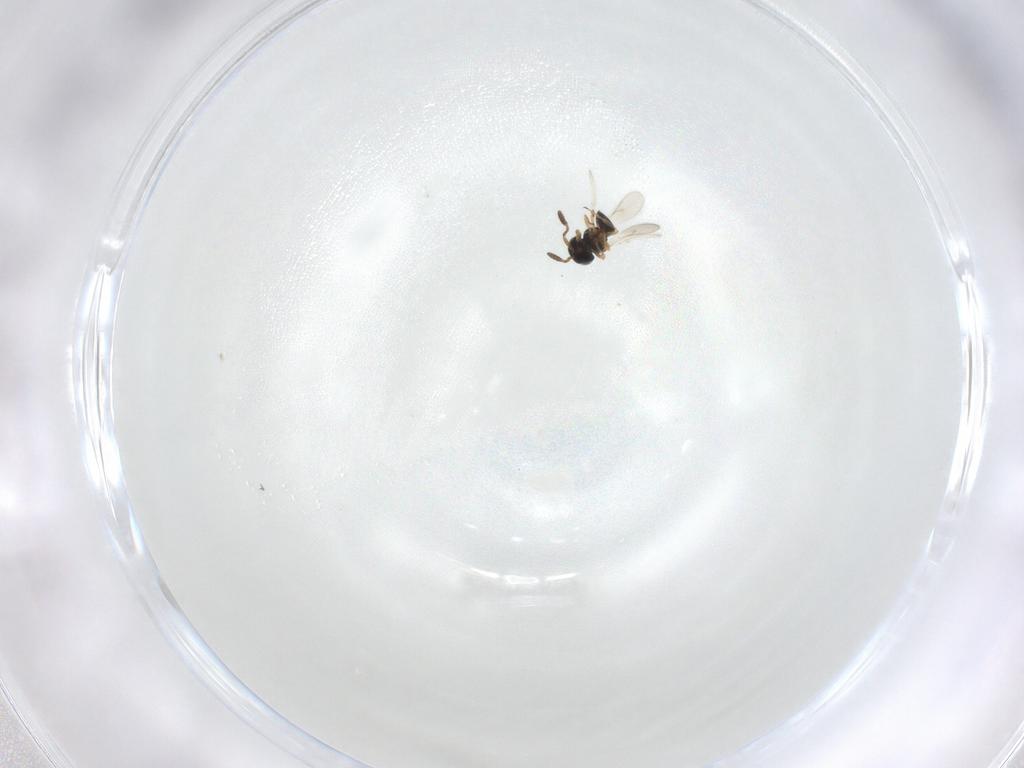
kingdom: Animalia
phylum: Arthropoda
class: Insecta
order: Hymenoptera
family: Scelionidae
